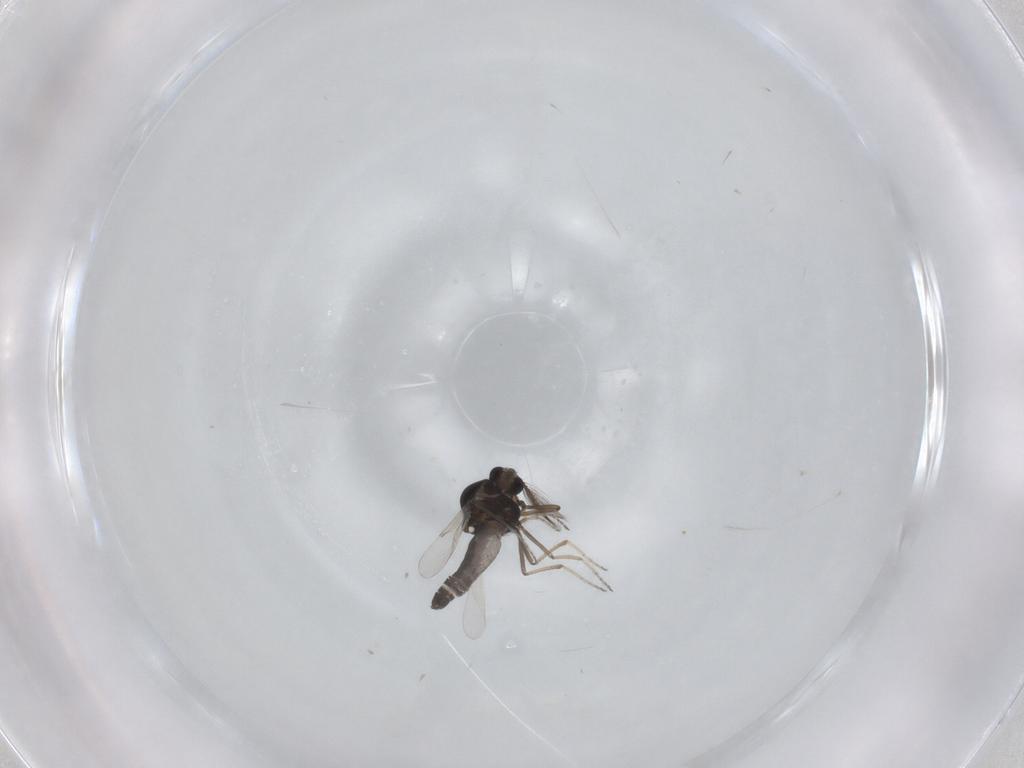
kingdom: Animalia
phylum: Arthropoda
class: Insecta
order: Diptera
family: Ceratopogonidae
